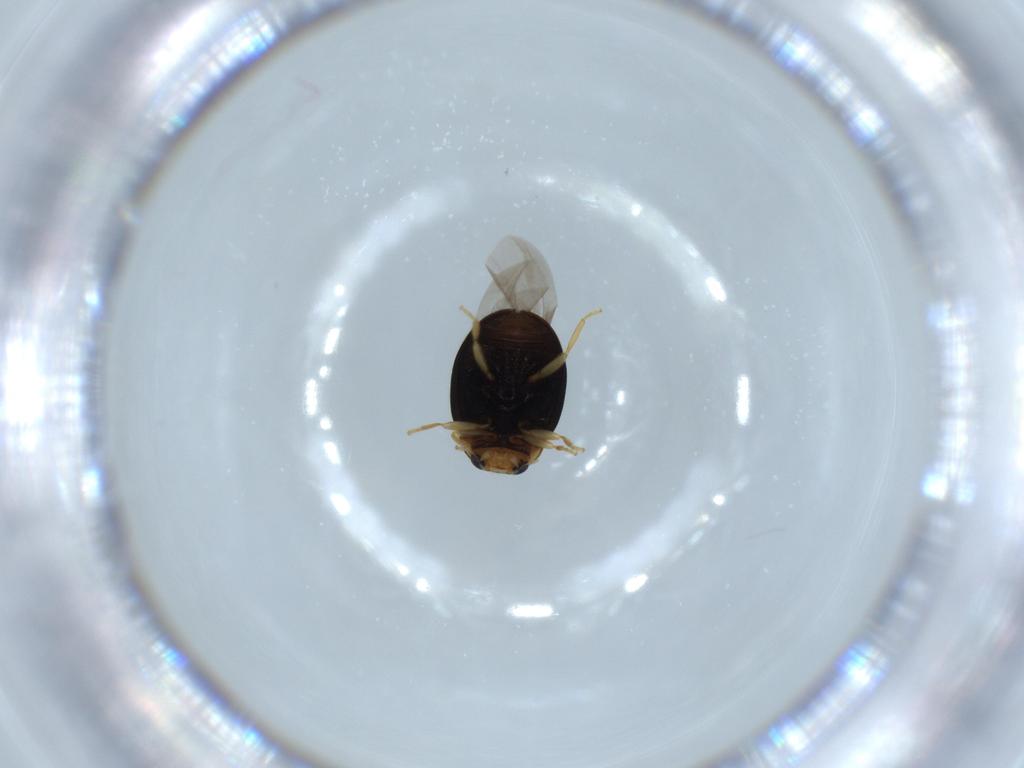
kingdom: Animalia
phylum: Arthropoda
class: Insecta
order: Coleoptera
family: Coccinellidae
